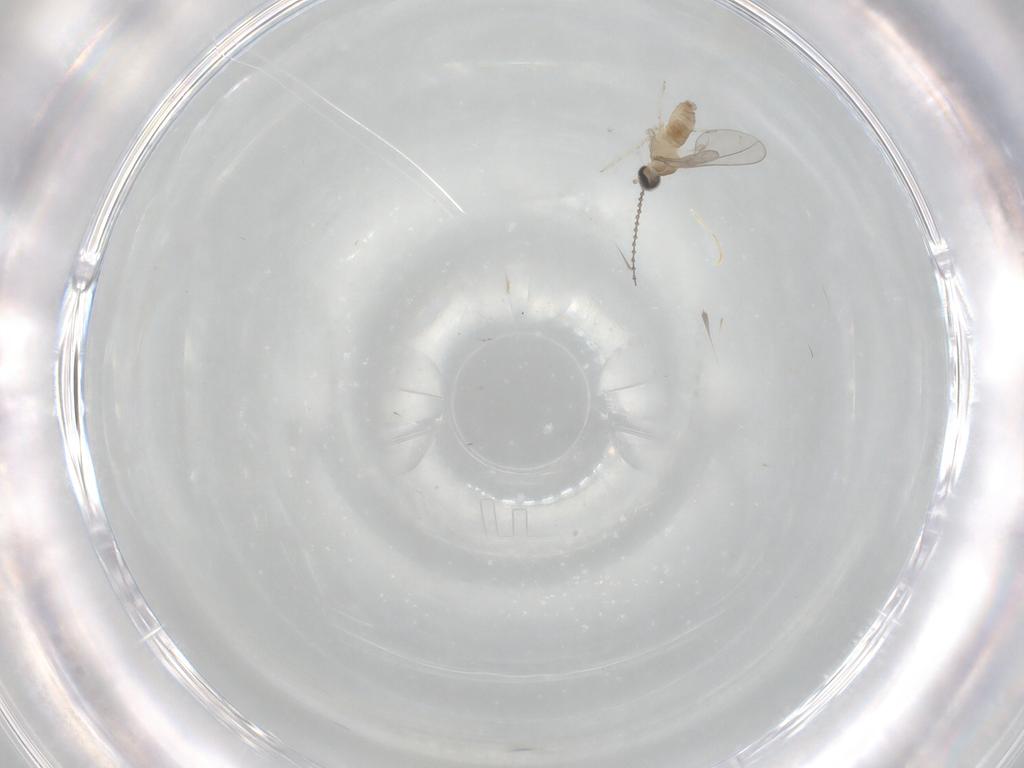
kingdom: Animalia
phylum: Arthropoda
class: Insecta
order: Diptera
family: Cecidomyiidae
